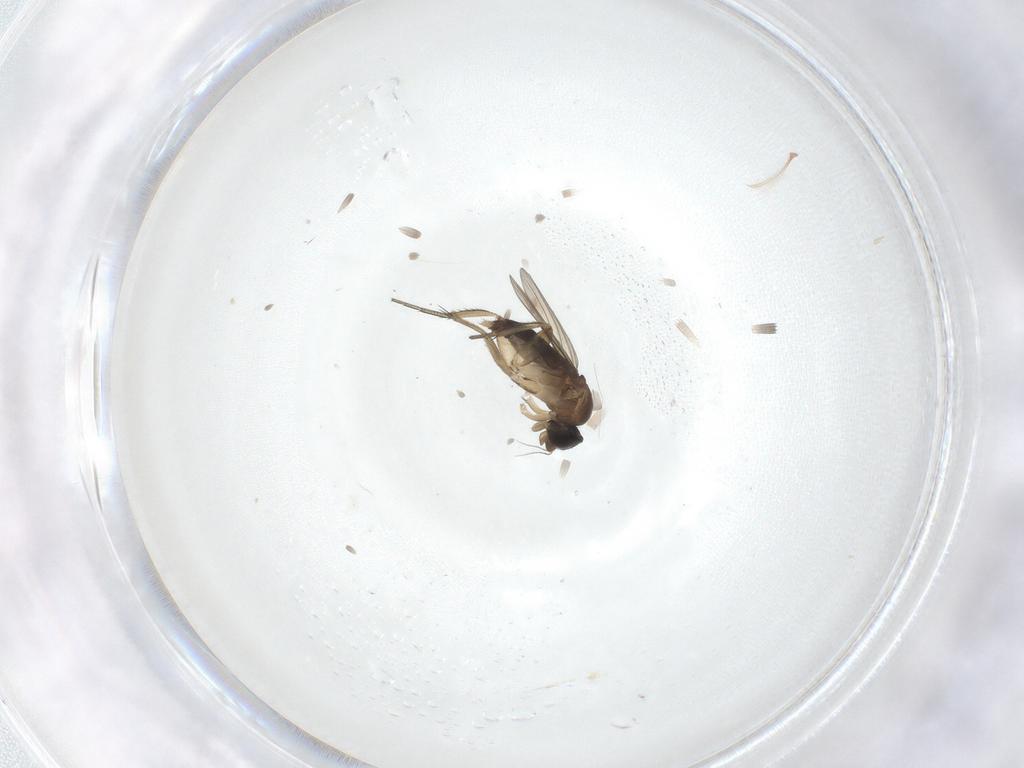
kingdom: Animalia
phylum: Arthropoda
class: Insecta
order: Diptera
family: Phoridae
